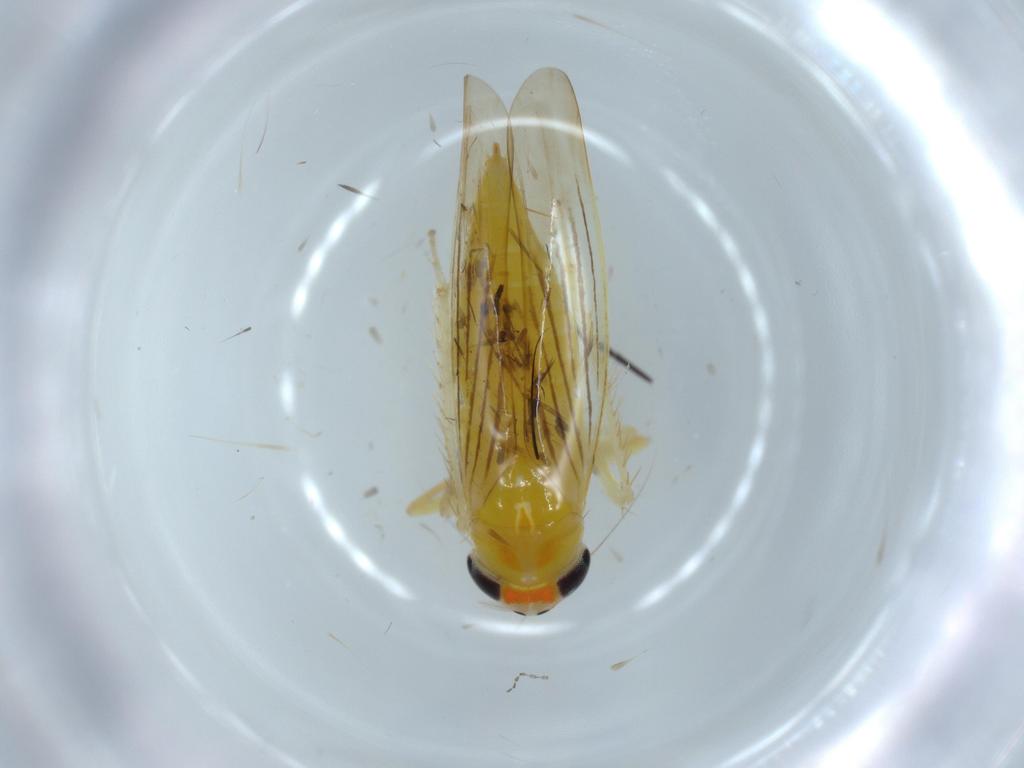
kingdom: Animalia
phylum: Arthropoda
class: Insecta
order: Hemiptera
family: Cicadellidae
